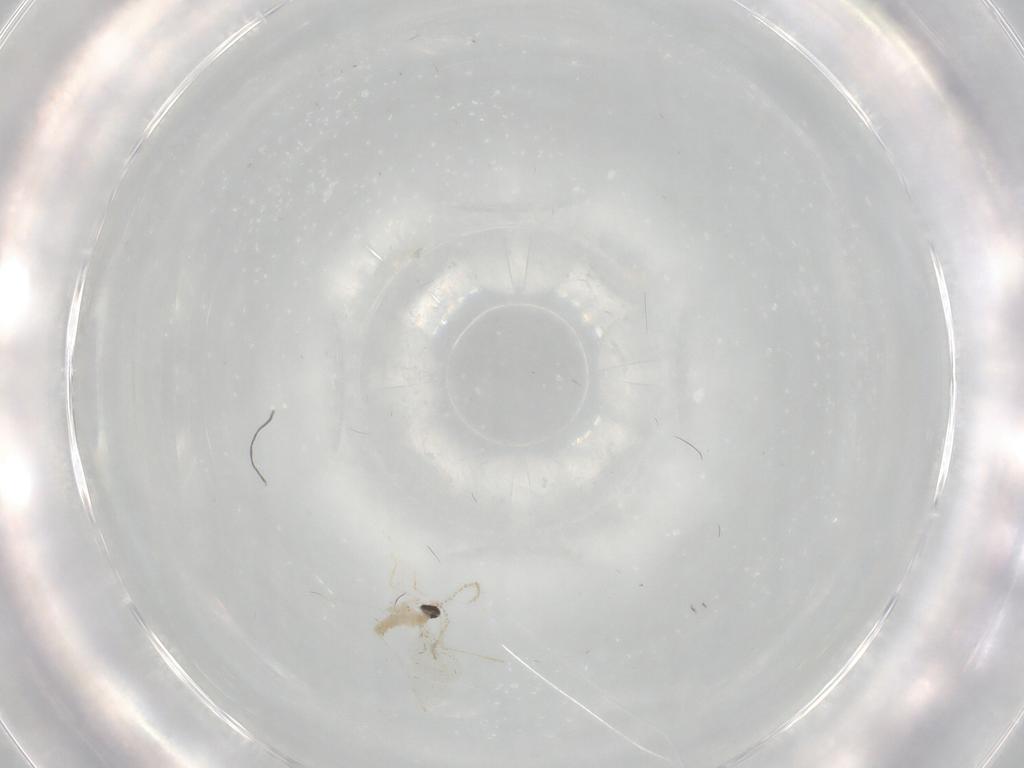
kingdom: Animalia
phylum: Arthropoda
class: Insecta
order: Diptera
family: Cecidomyiidae
